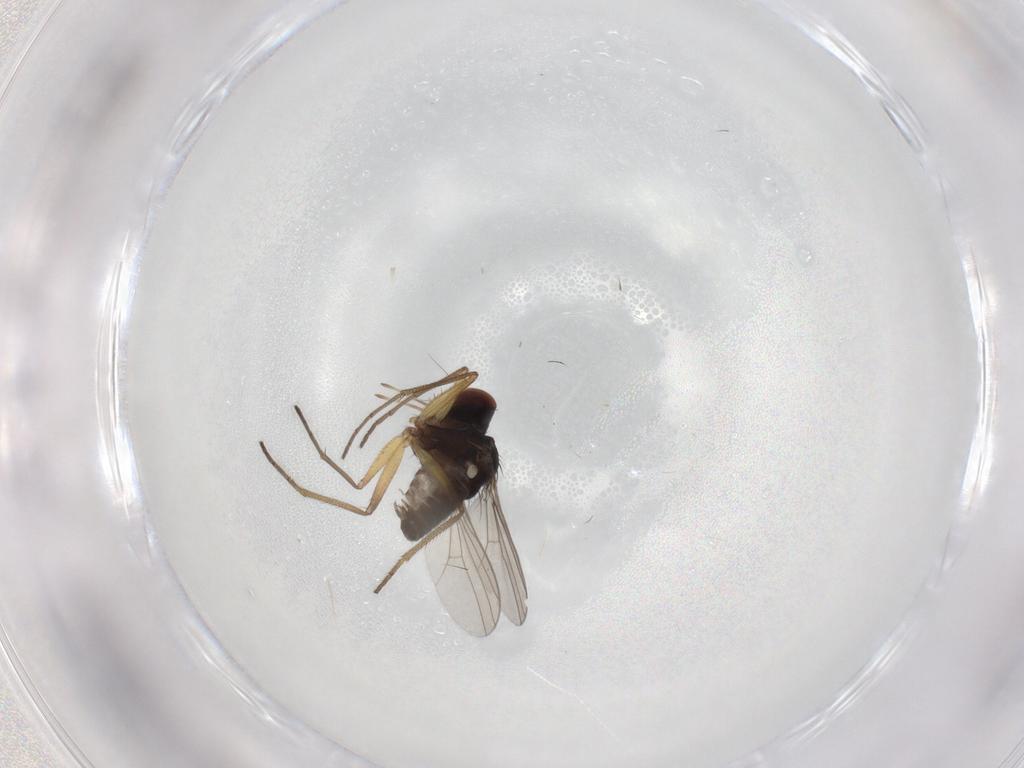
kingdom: Animalia
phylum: Arthropoda
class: Insecta
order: Diptera
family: Dolichopodidae
